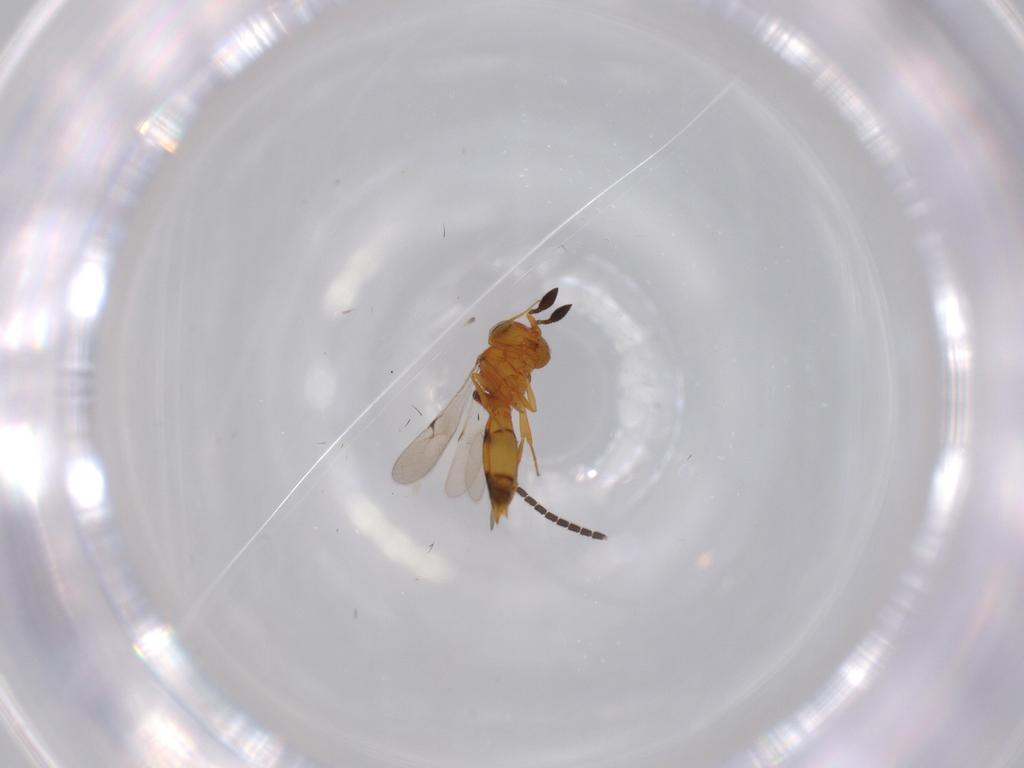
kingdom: Animalia
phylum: Arthropoda
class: Insecta
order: Hymenoptera
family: Scelionidae
